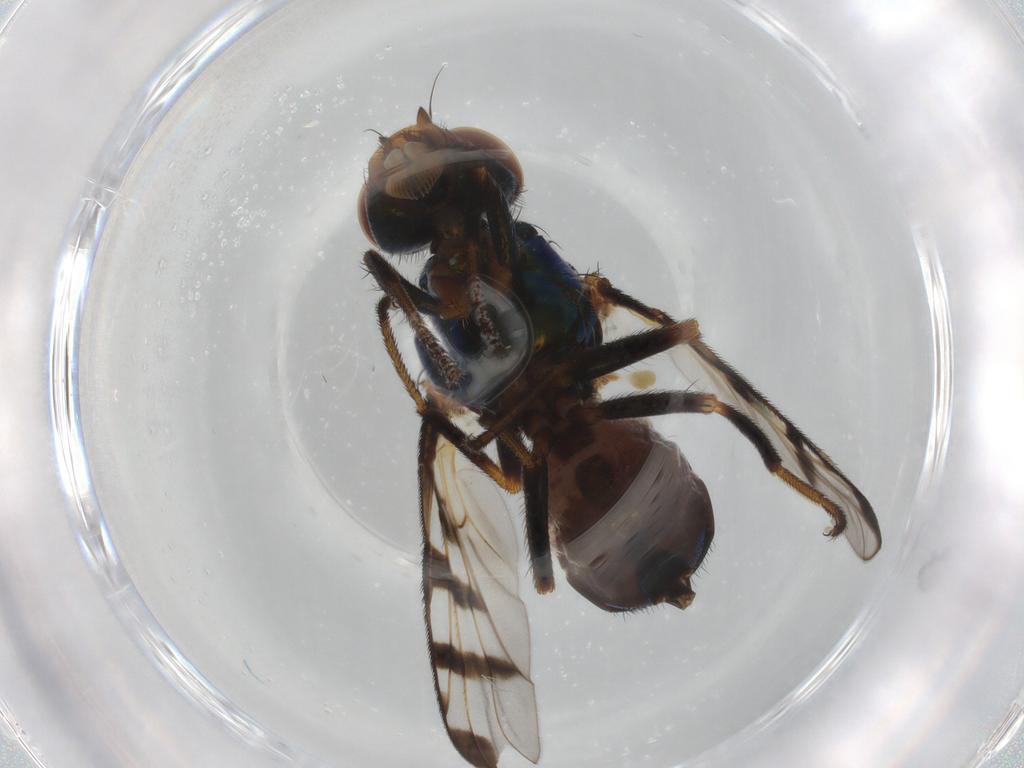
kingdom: Animalia
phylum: Arthropoda
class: Insecta
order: Diptera
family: Platystomatidae
